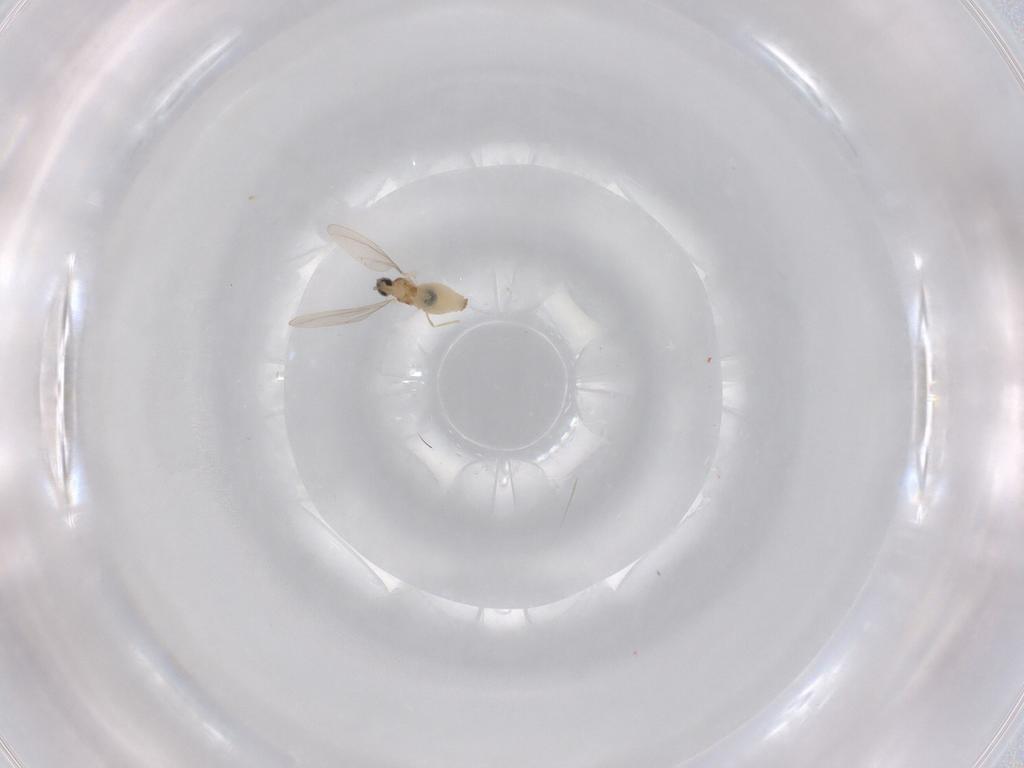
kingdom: Animalia
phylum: Arthropoda
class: Insecta
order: Diptera
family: Cecidomyiidae
